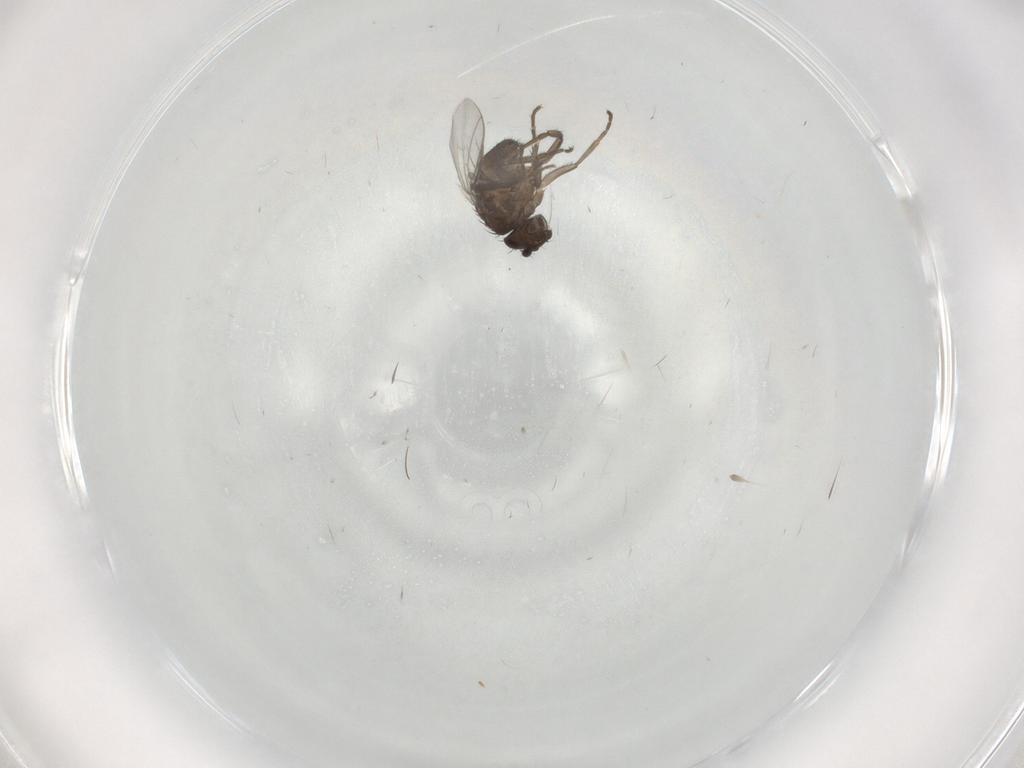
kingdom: Animalia
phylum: Arthropoda
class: Insecta
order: Diptera
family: Sphaeroceridae
